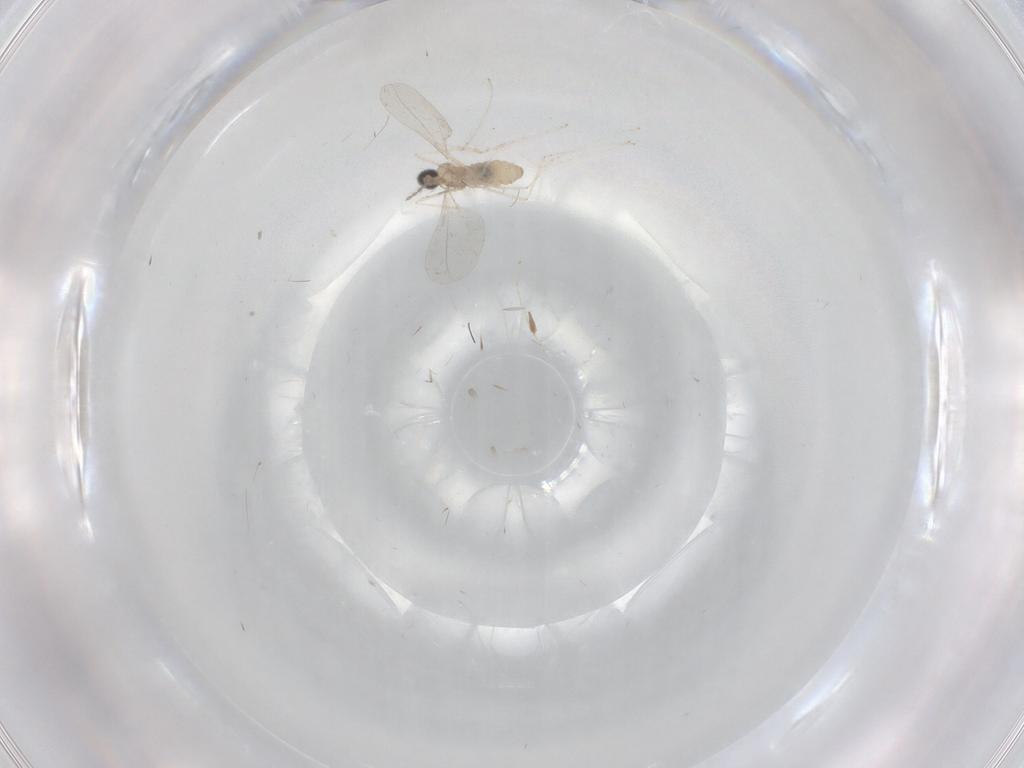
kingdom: Animalia
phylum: Arthropoda
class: Insecta
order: Diptera
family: Cecidomyiidae
